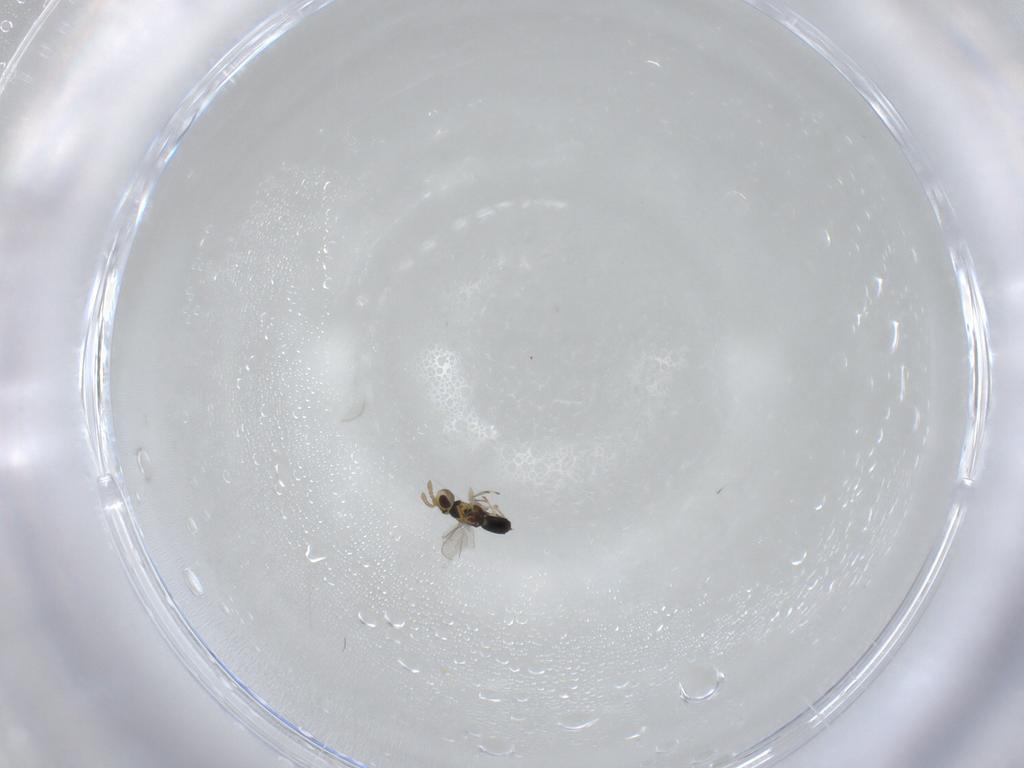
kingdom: Animalia
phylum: Arthropoda
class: Insecta
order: Hymenoptera
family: Aphelinidae
